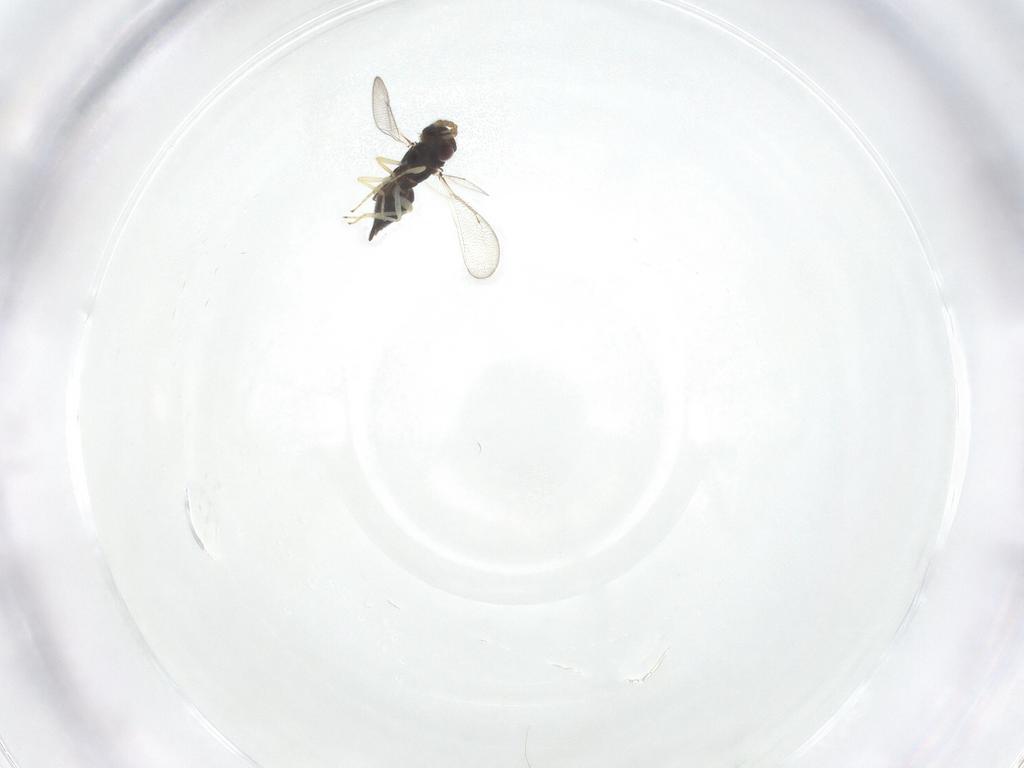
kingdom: Animalia
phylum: Arthropoda
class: Insecta
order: Hymenoptera
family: Eulophidae
